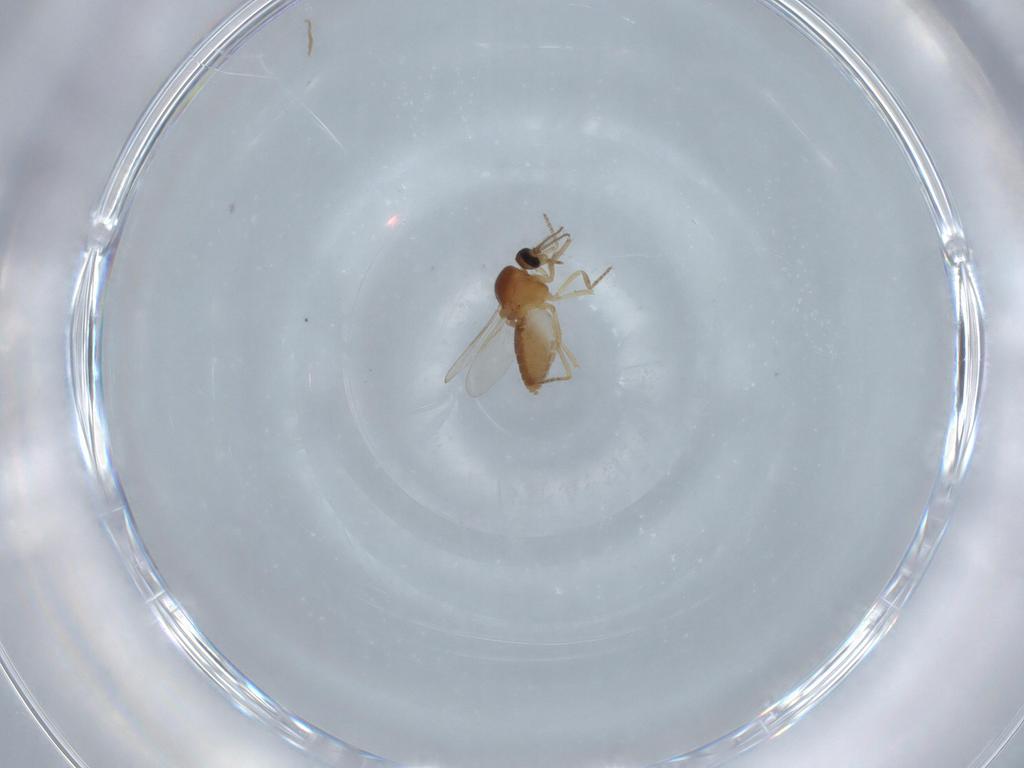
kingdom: Animalia
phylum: Arthropoda
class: Insecta
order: Diptera
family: Ceratopogonidae
